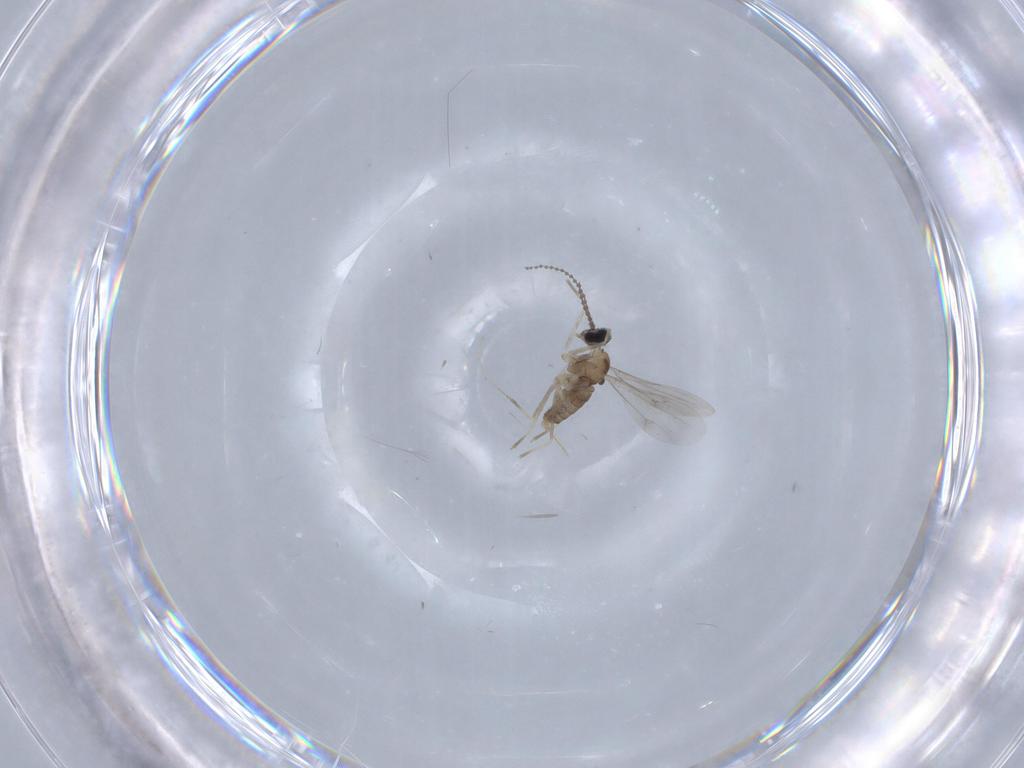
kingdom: Animalia
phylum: Arthropoda
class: Insecta
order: Diptera
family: Cecidomyiidae
